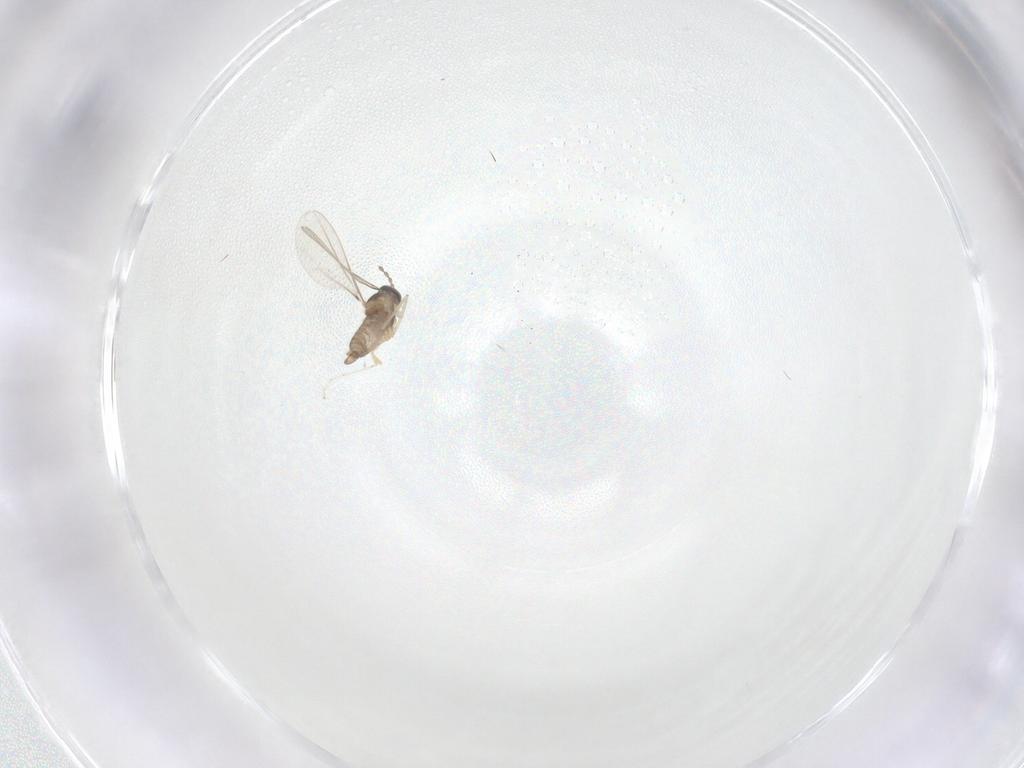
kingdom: Animalia
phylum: Arthropoda
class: Insecta
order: Diptera
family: Cecidomyiidae
